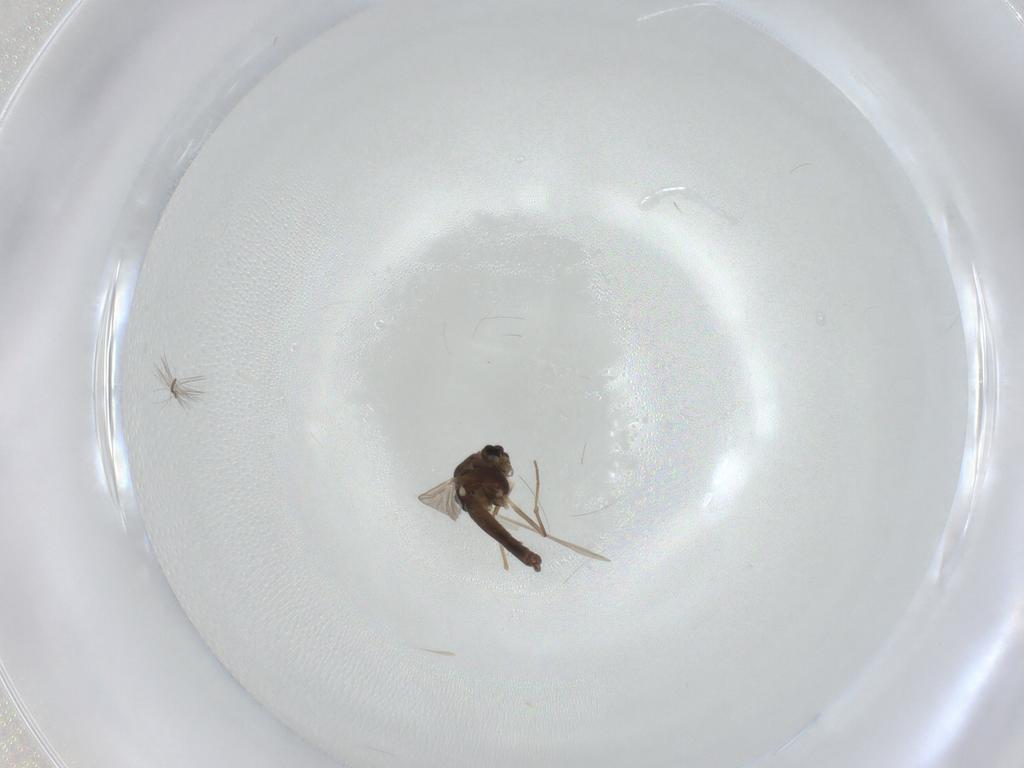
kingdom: Animalia
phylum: Arthropoda
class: Insecta
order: Diptera
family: Chironomidae
